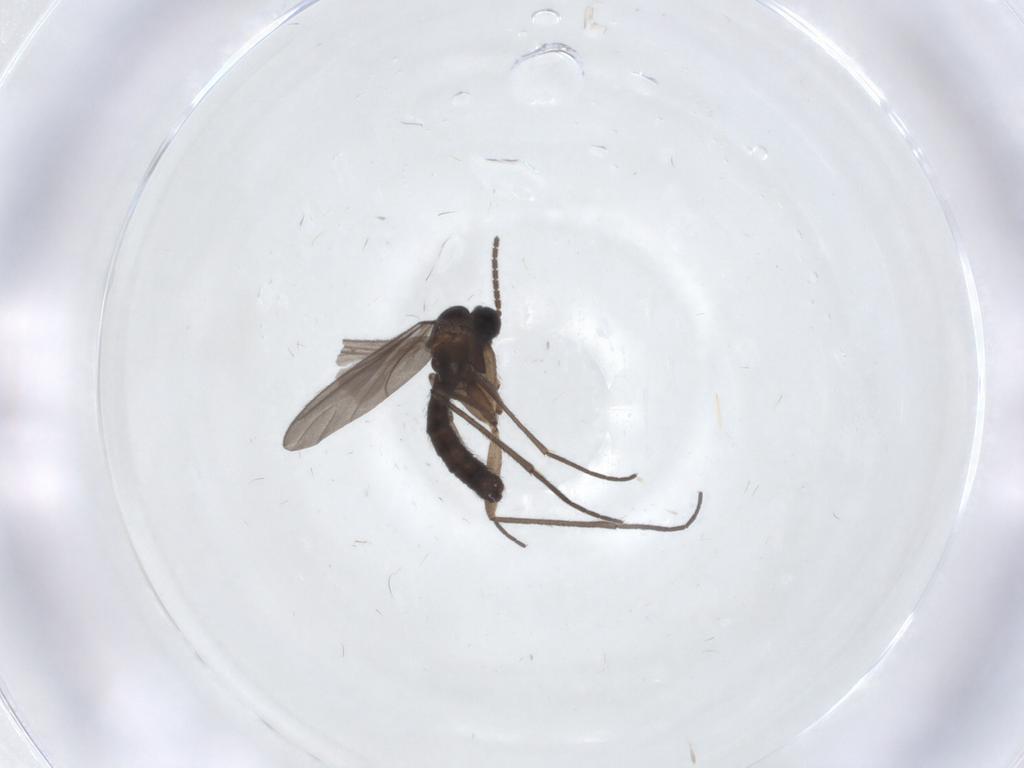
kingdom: Animalia
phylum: Arthropoda
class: Insecta
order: Diptera
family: Sciaridae
